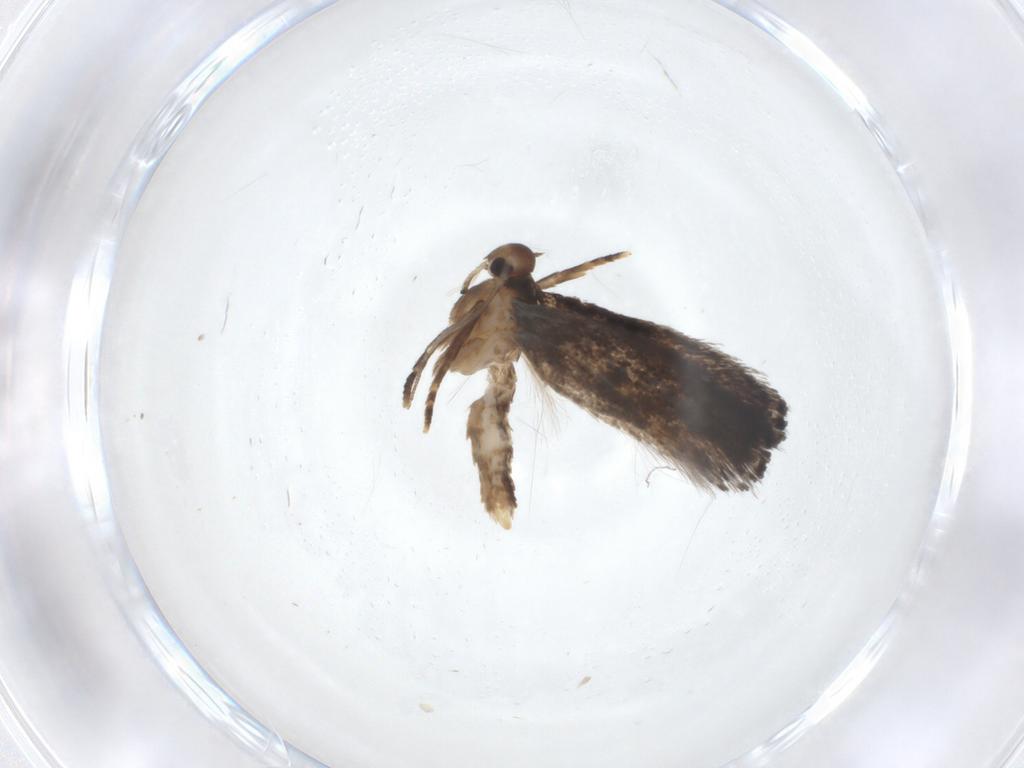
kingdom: Animalia
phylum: Arthropoda
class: Insecta
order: Lepidoptera
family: Elachistidae
